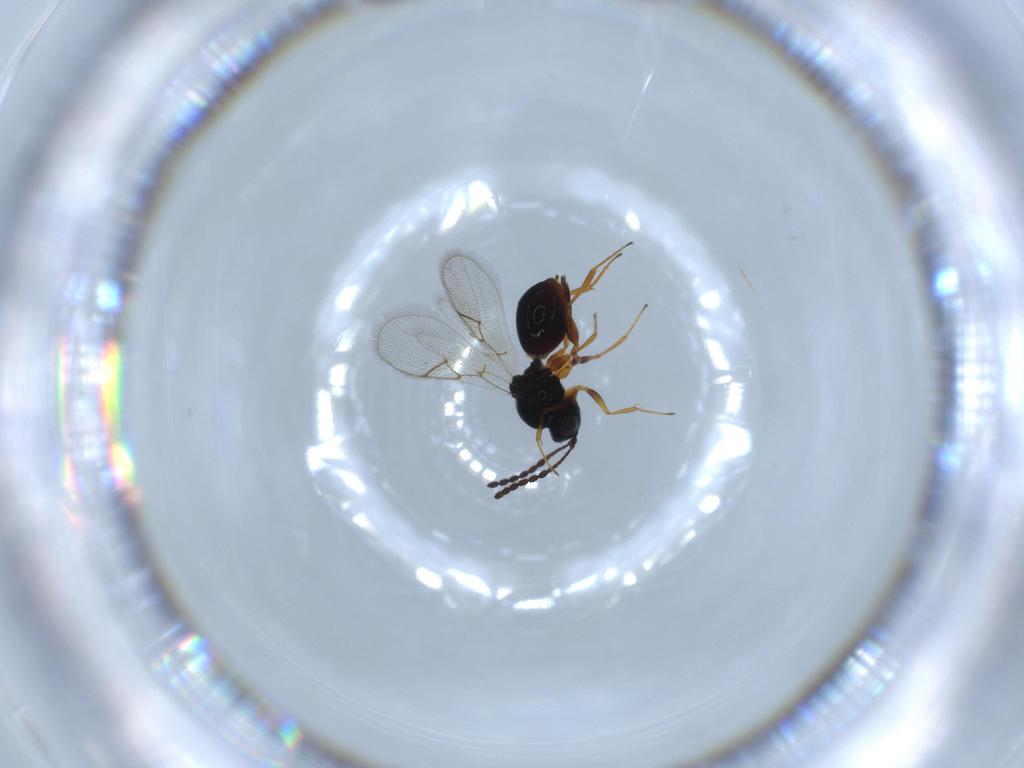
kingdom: Animalia
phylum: Arthropoda
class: Insecta
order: Hymenoptera
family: Figitidae
